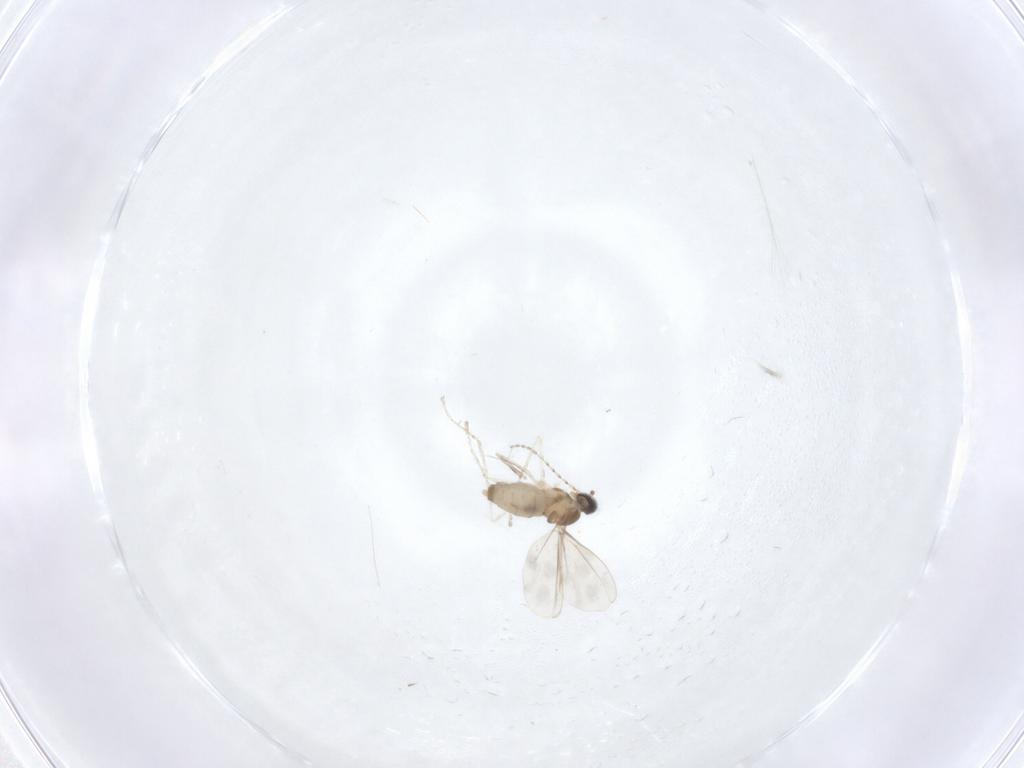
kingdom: Animalia
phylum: Arthropoda
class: Insecta
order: Diptera
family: Cecidomyiidae
